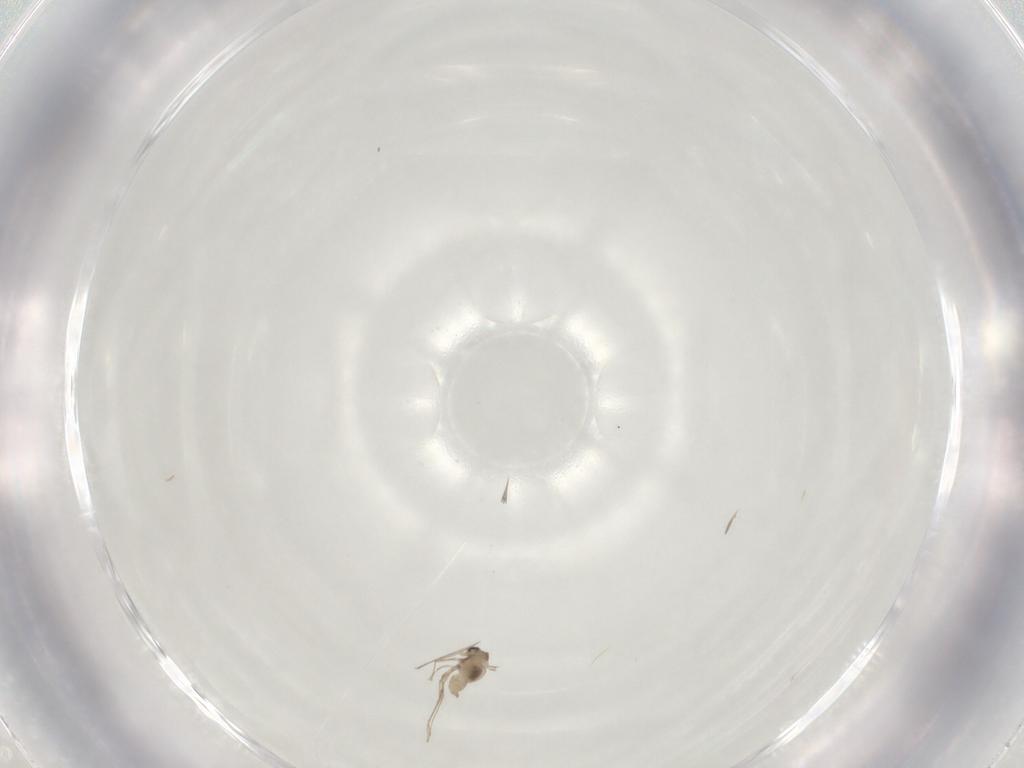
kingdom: Animalia
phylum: Arthropoda
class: Insecta
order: Diptera
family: Cecidomyiidae
